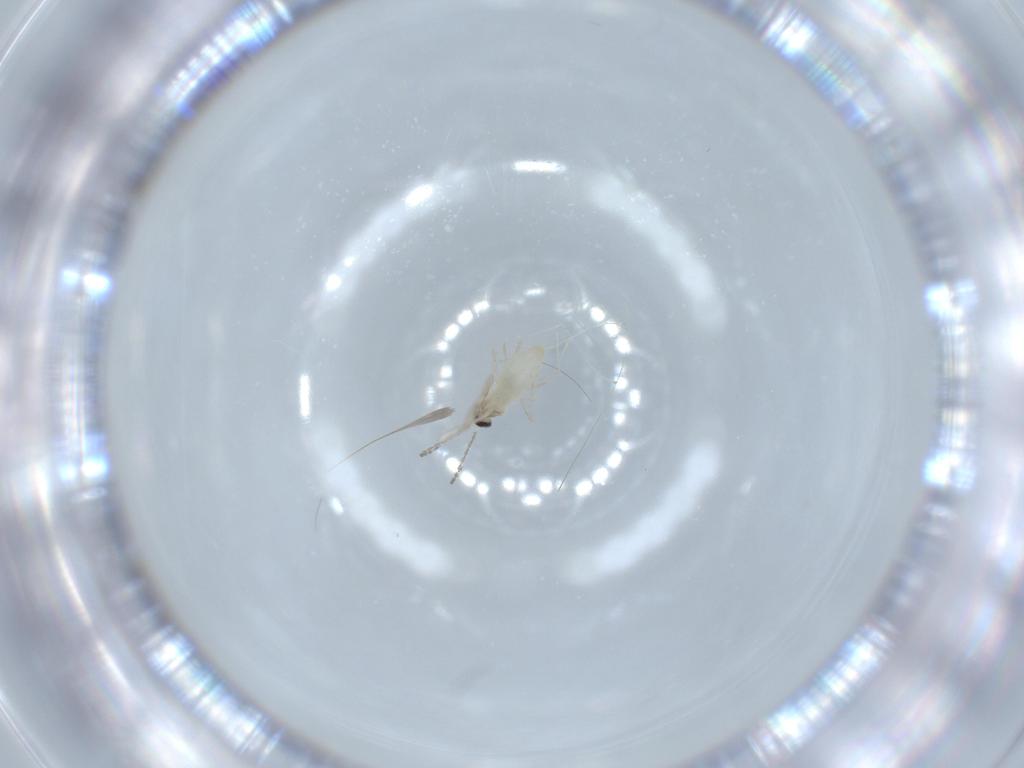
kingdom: Animalia
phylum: Arthropoda
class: Insecta
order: Diptera
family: Cecidomyiidae
